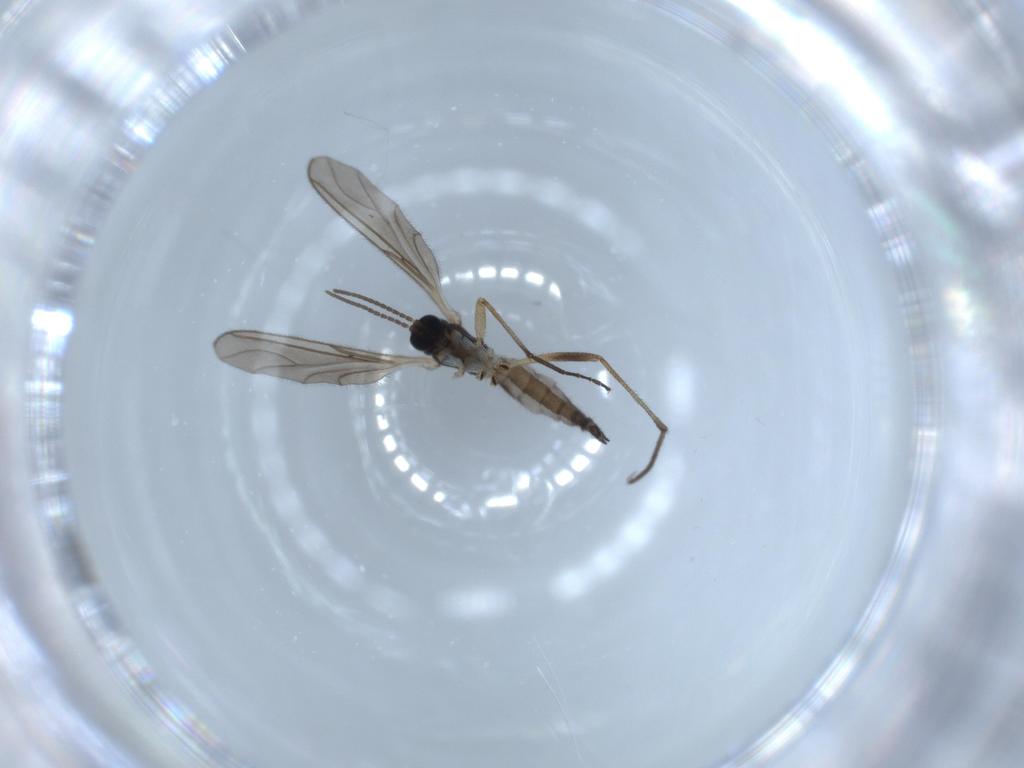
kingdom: Animalia
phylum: Arthropoda
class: Insecta
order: Diptera
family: Sciaridae
